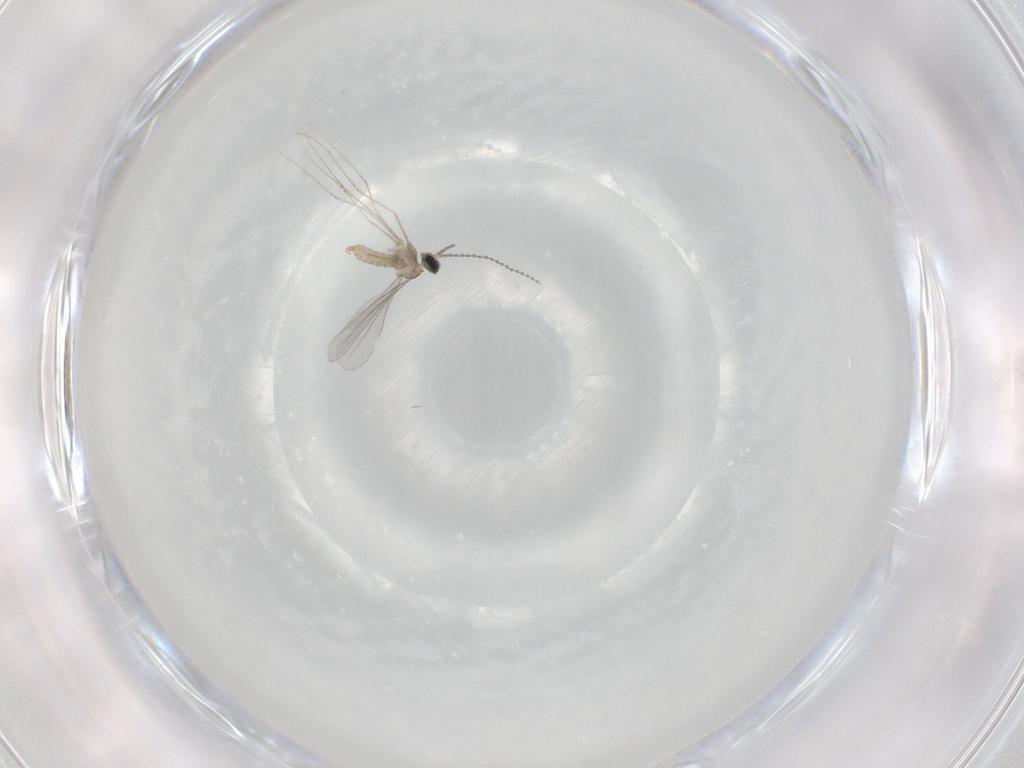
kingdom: Animalia
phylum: Arthropoda
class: Insecta
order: Diptera
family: Cecidomyiidae
